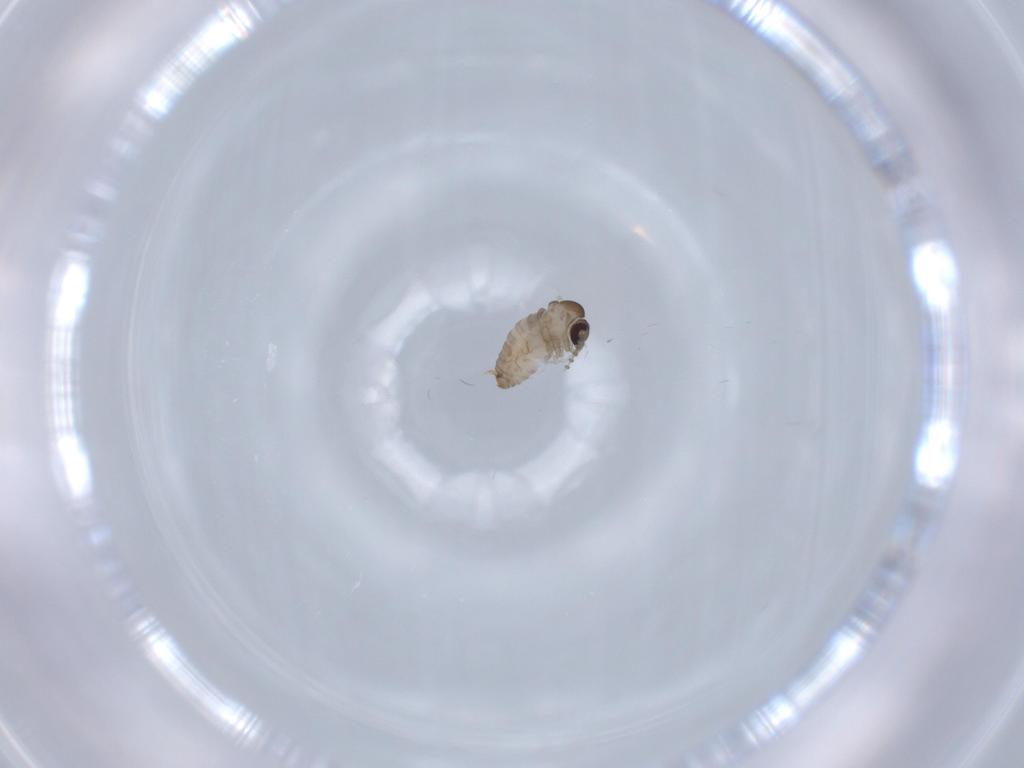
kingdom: Animalia
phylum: Arthropoda
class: Insecta
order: Diptera
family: Psychodidae
